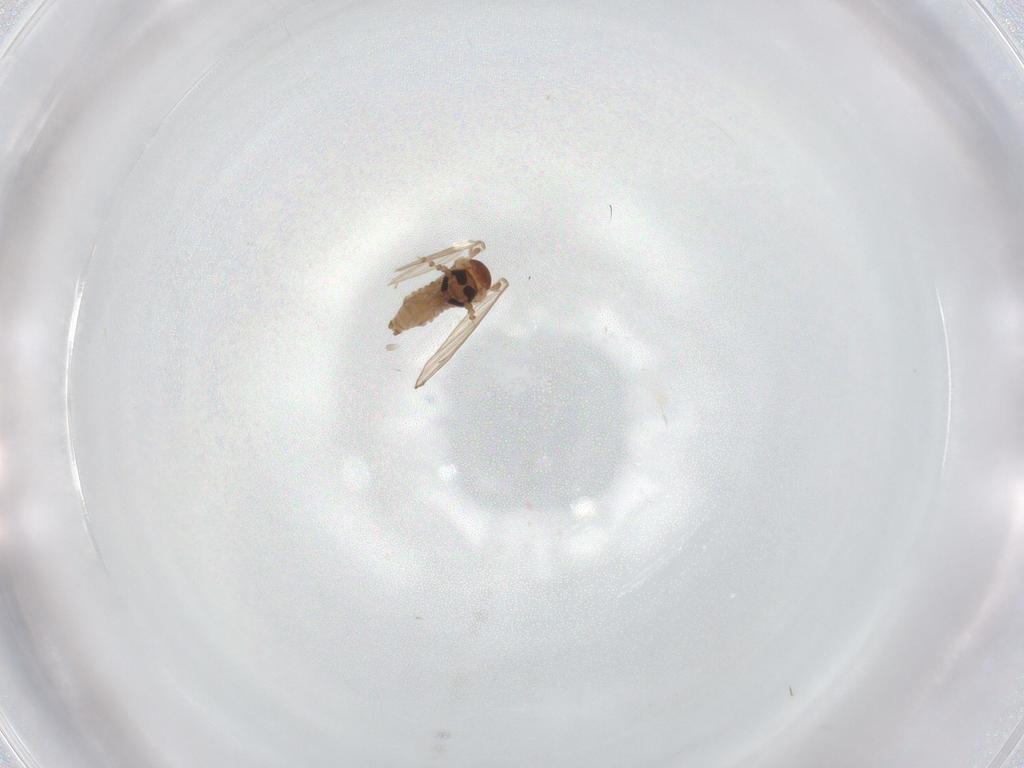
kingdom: Animalia
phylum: Arthropoda
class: Insecta
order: Diptera
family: Psychodidae
